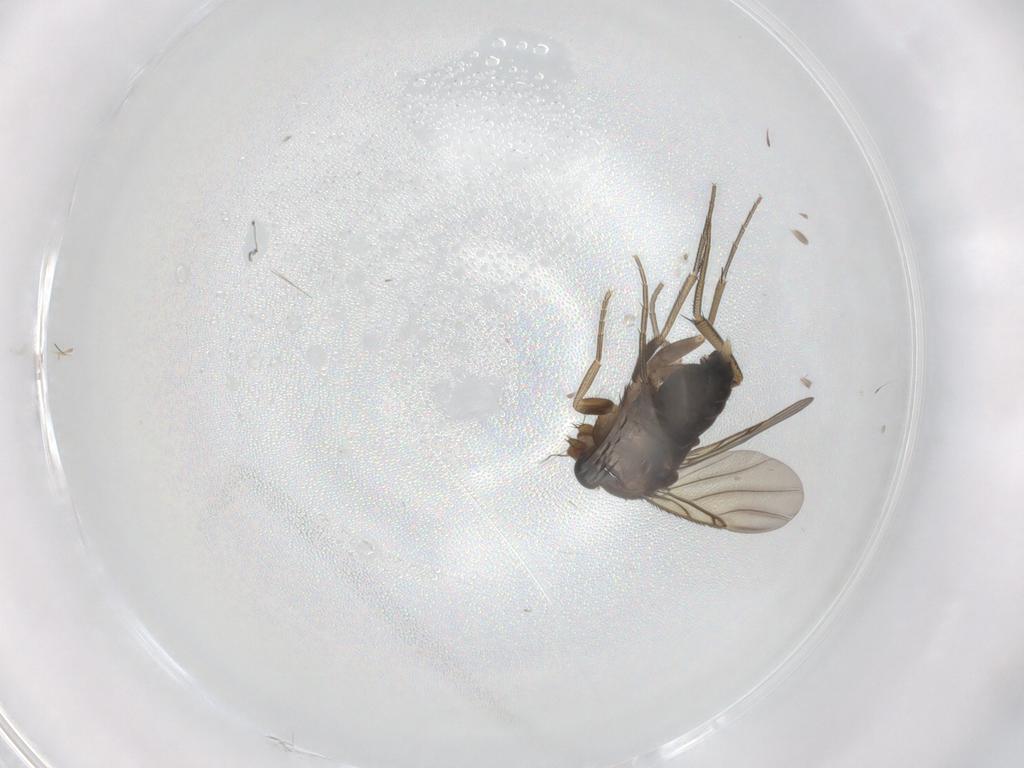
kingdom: Animalia
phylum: Arthropoda
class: Insecta
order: Diptera
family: Phoridae
